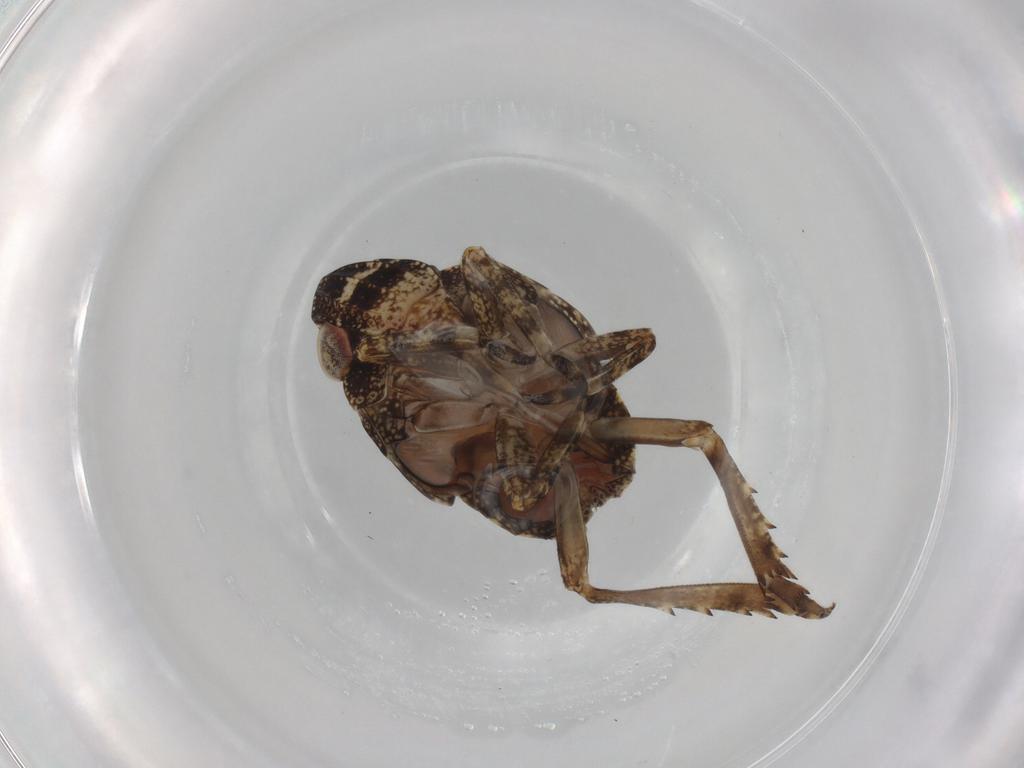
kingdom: Animalia
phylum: Arthropoda
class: Insecta
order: Hemiptera
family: Nogodinidae
